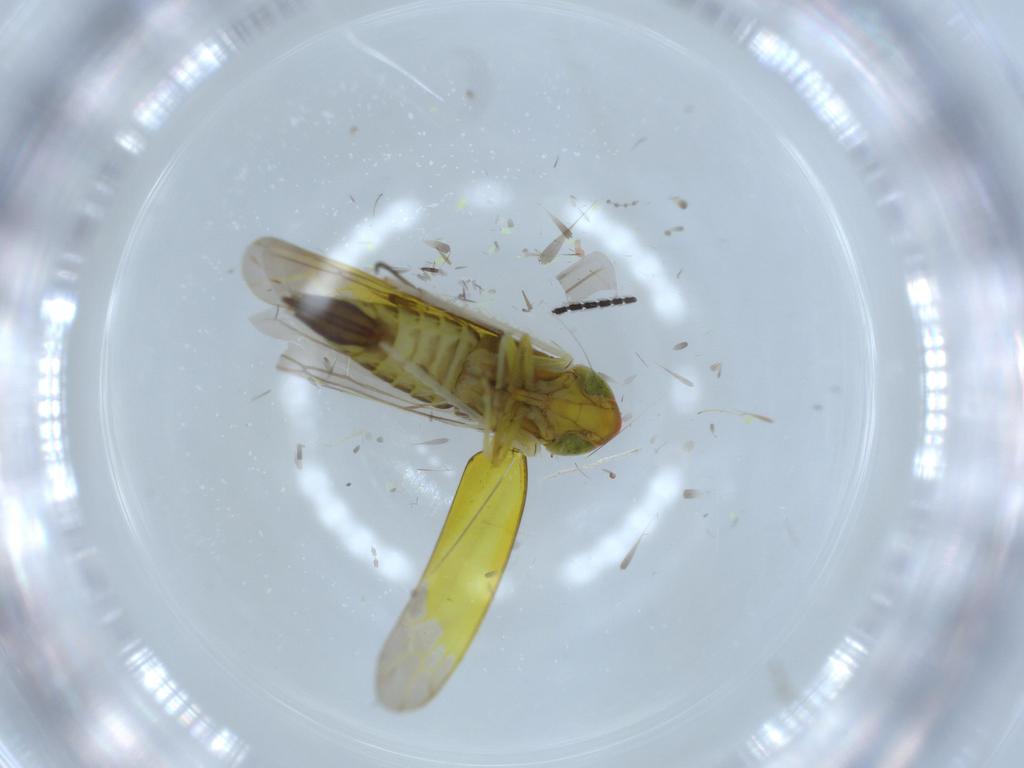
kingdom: Animalia
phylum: Arthropoda
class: Insecta
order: Hemiptera
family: Cicadellidae
